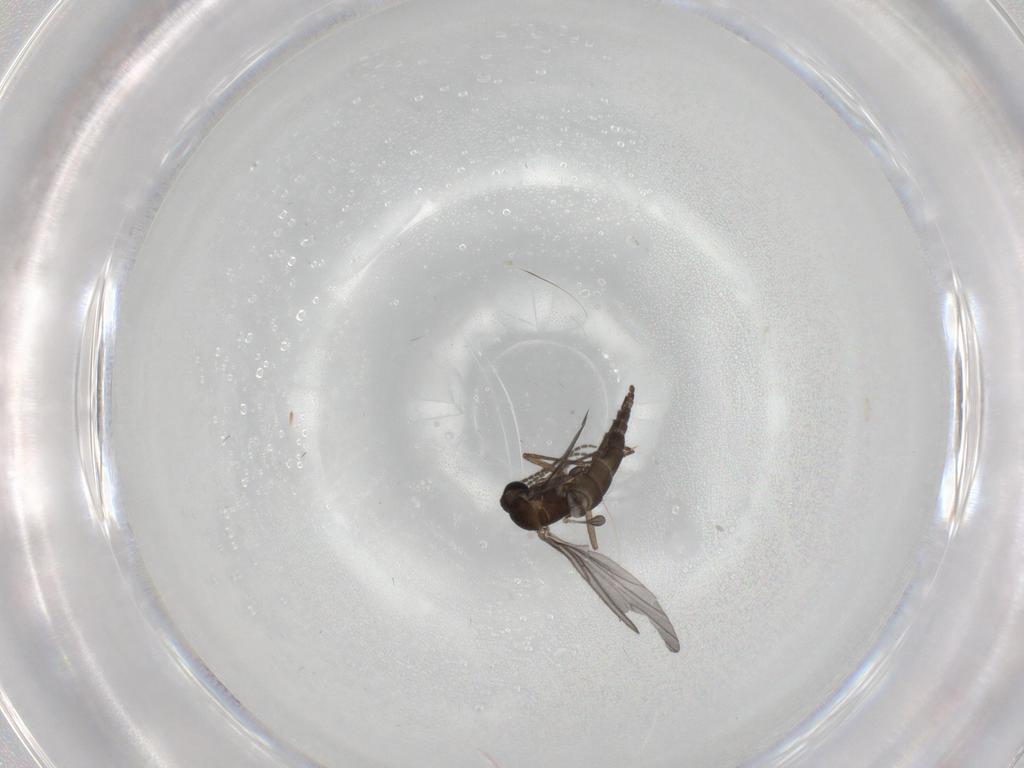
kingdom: Animalia
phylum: Arthropoda
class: Insecta
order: Diptera
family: Sciaridae
